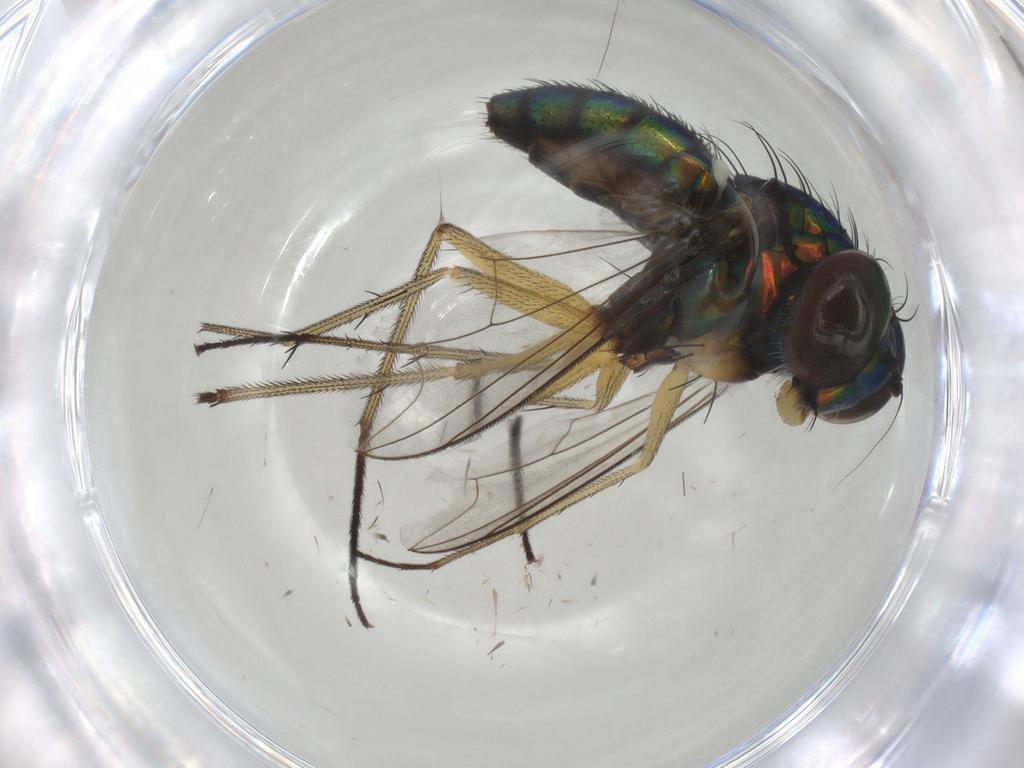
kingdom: Animalia
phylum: Arthropoda
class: Insecta
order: Diptera
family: Dolichopodidae
